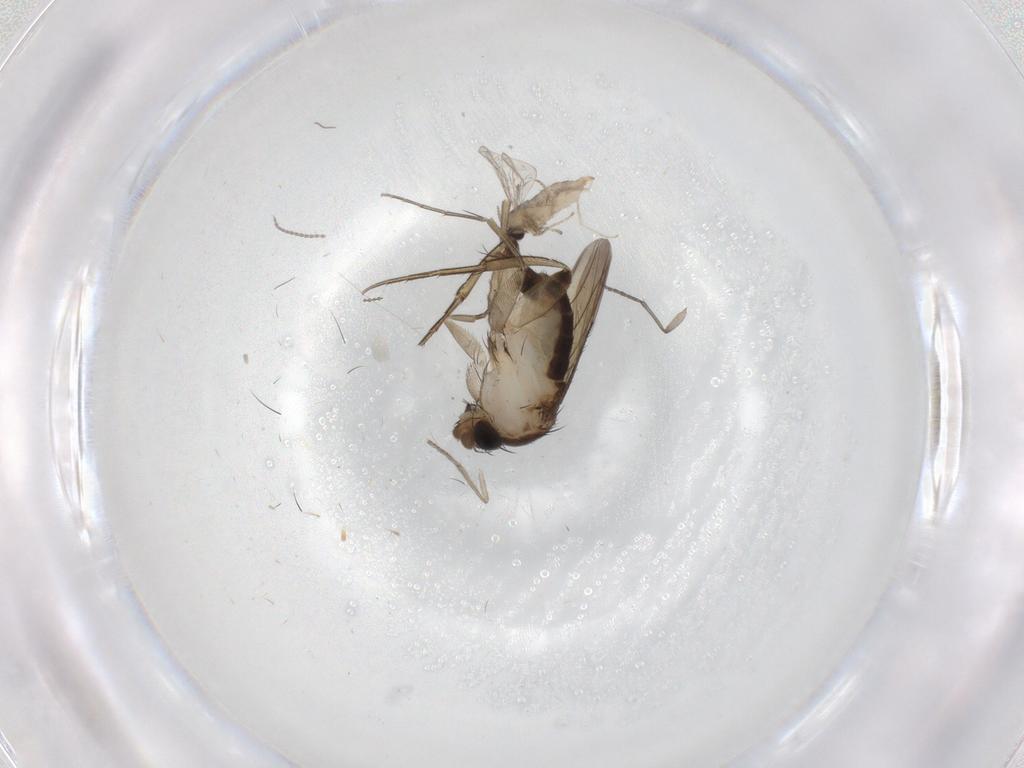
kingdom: Animalia
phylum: Arthropoda
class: Insecta
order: Diptera
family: Phoridae
